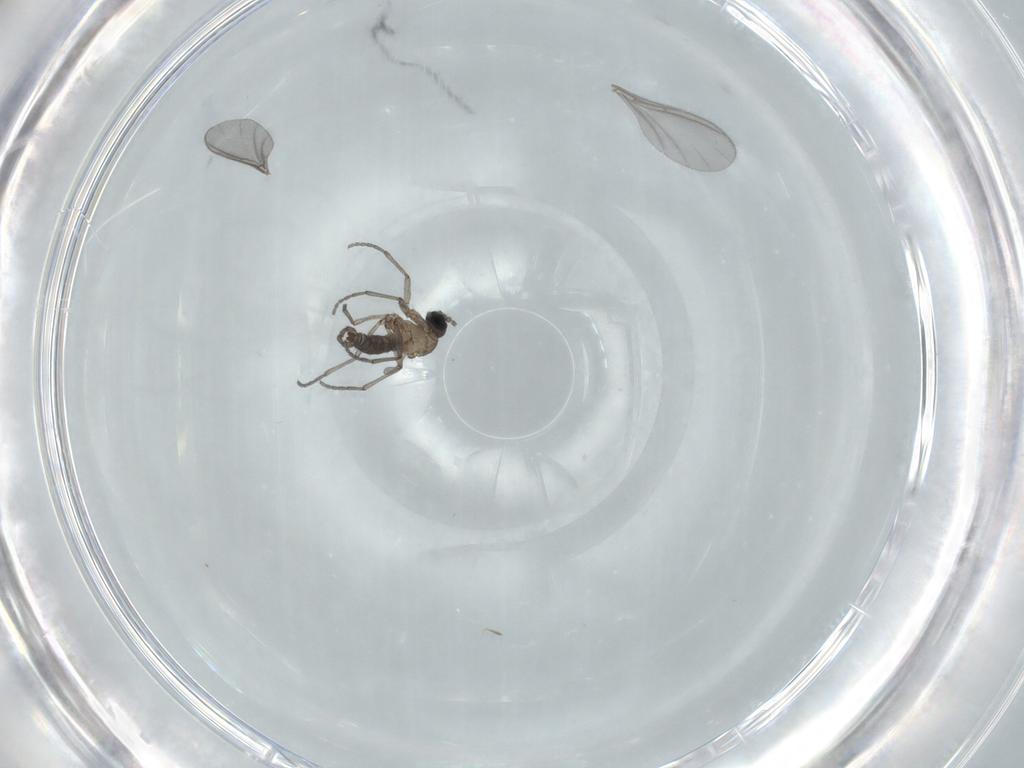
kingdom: Animalia
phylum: Arthropoda
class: Insecta
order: Diptera
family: Sciaridae
